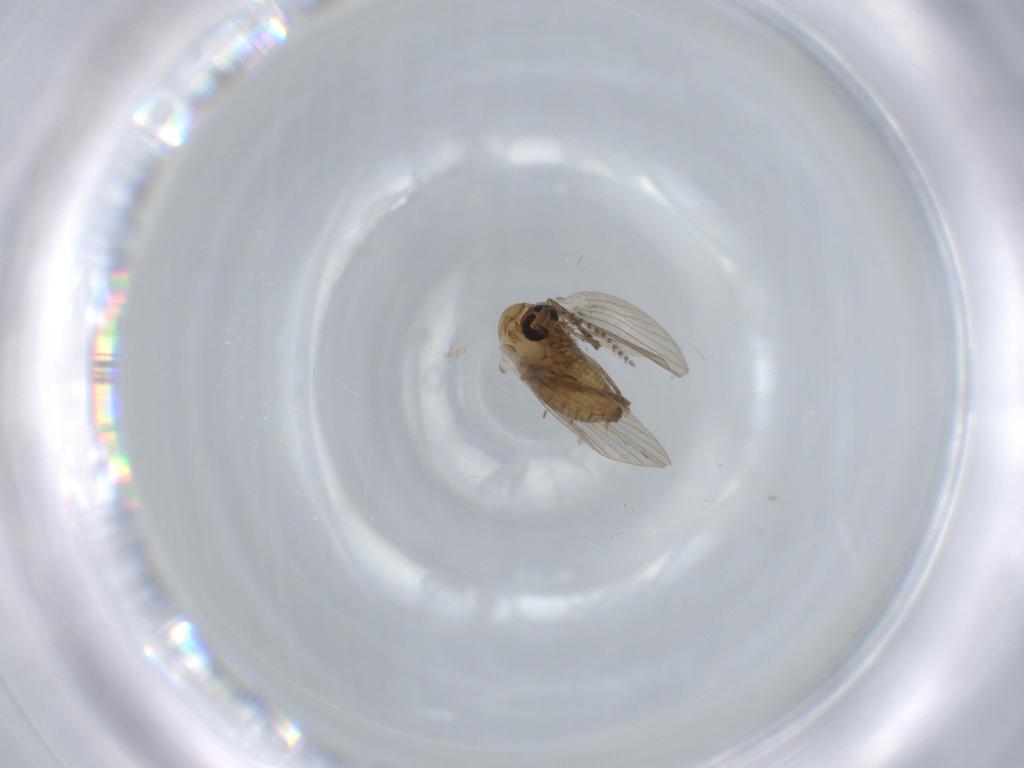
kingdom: Animalia
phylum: Arthropoda
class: Insecta
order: Diptera
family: Psychodidae
